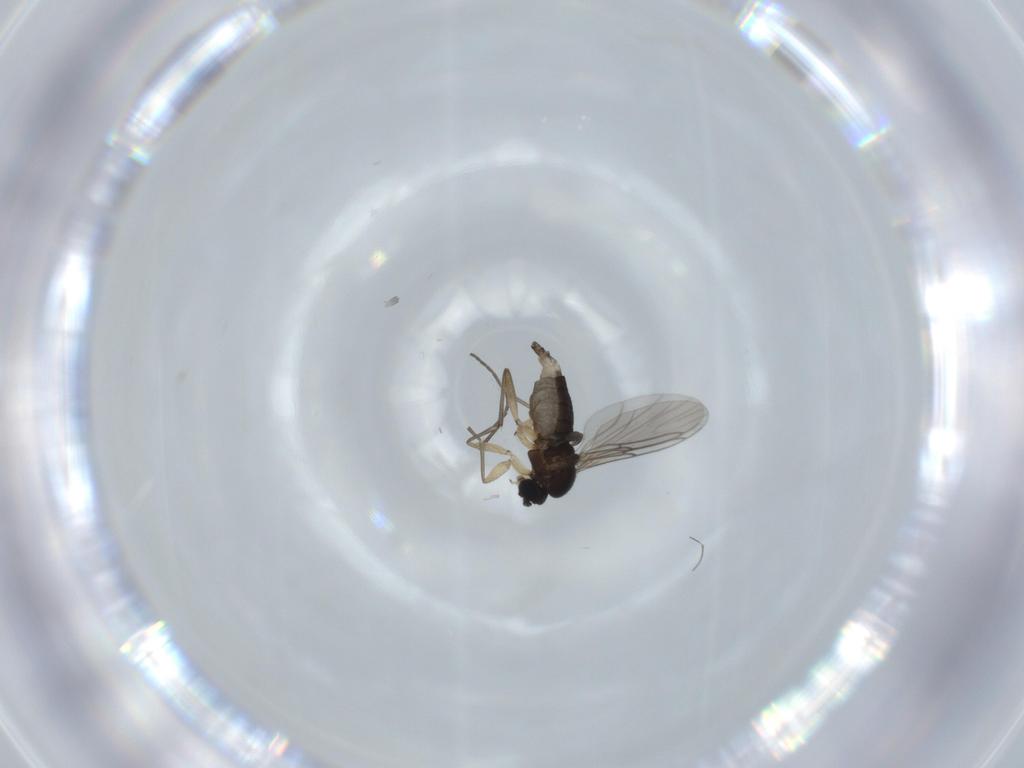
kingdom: Animalia
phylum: Arthropoda
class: Insecta
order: Diptera
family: Sciaridae
